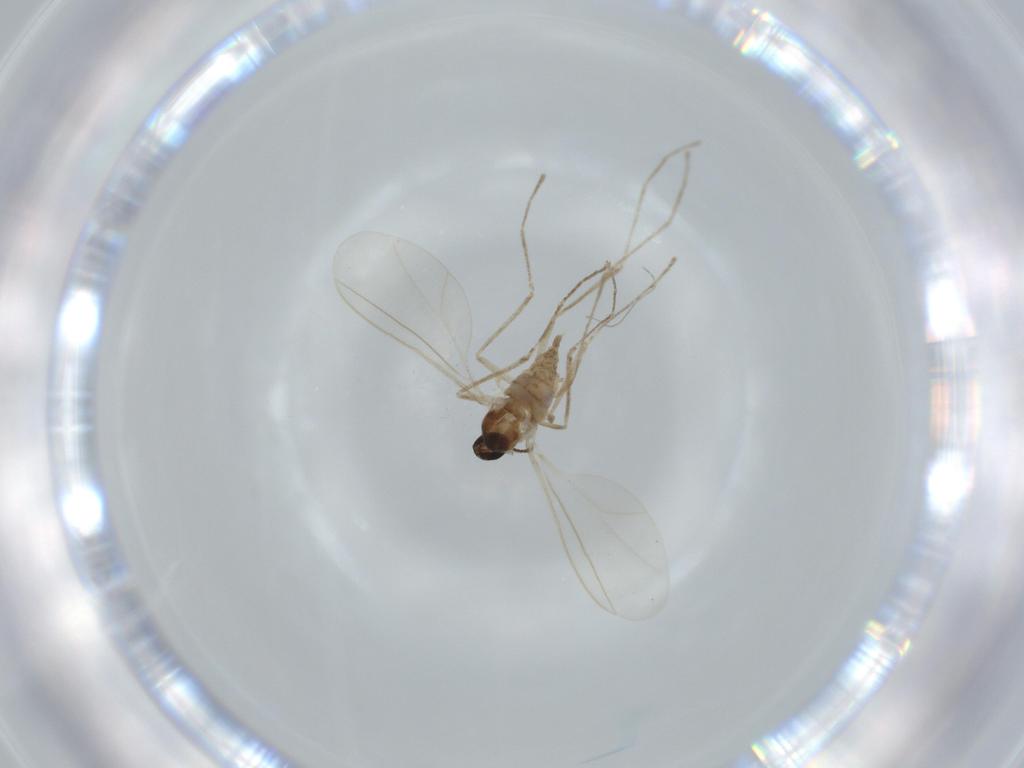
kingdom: Animalia
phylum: Arthropoda
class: Insecta
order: Diptera
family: Cecidomyiidae
